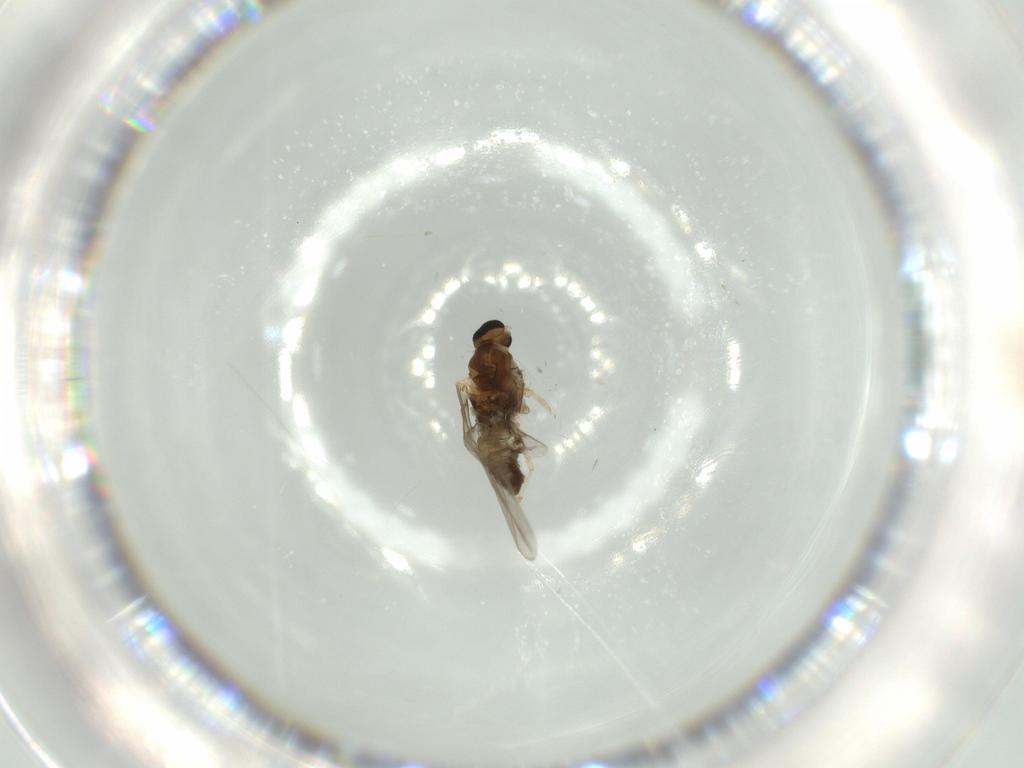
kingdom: Animalia
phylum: Arthropoda
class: Insecta
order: Diptera
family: Cecidomyiidae
